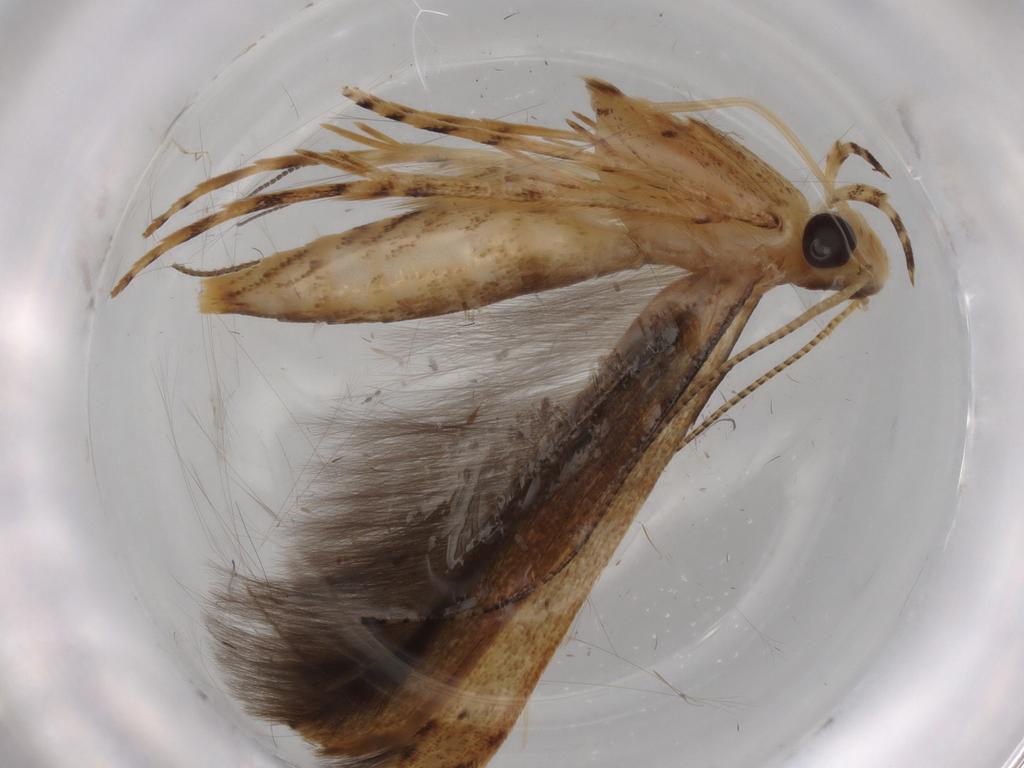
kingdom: Animalia
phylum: Arthropoda
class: Insecta
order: Lepidoptera
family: Gracillariidae
